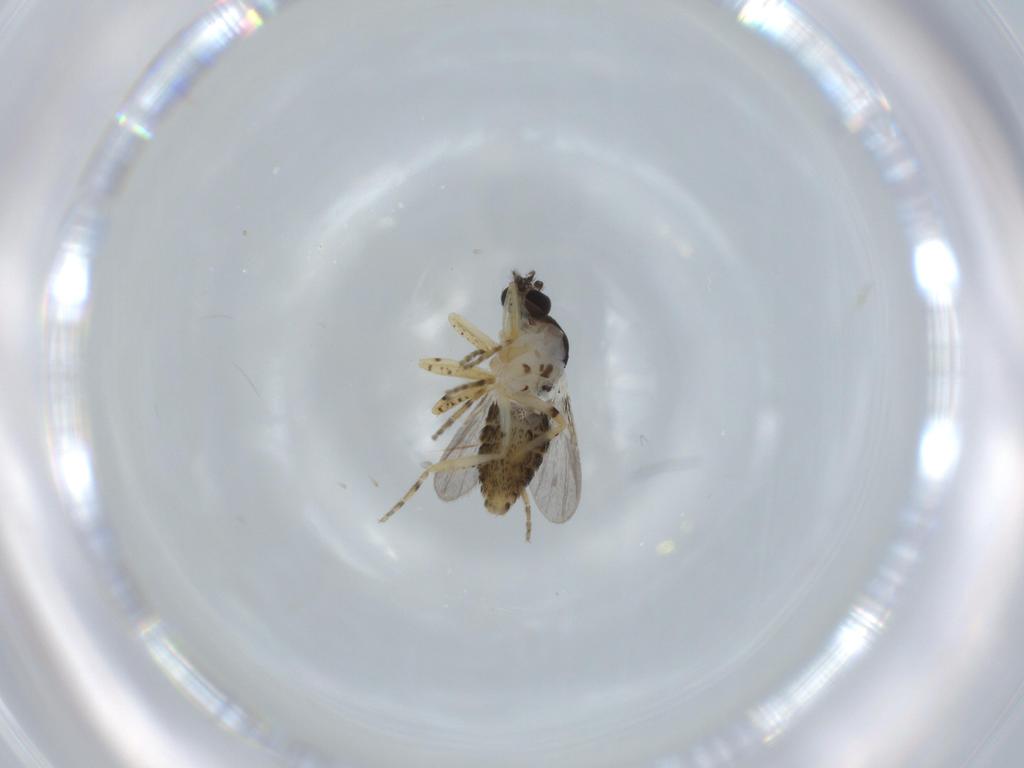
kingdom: Animalia
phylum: Arthropoda
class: Insecta
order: Diptera
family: Ceratopogonidae
